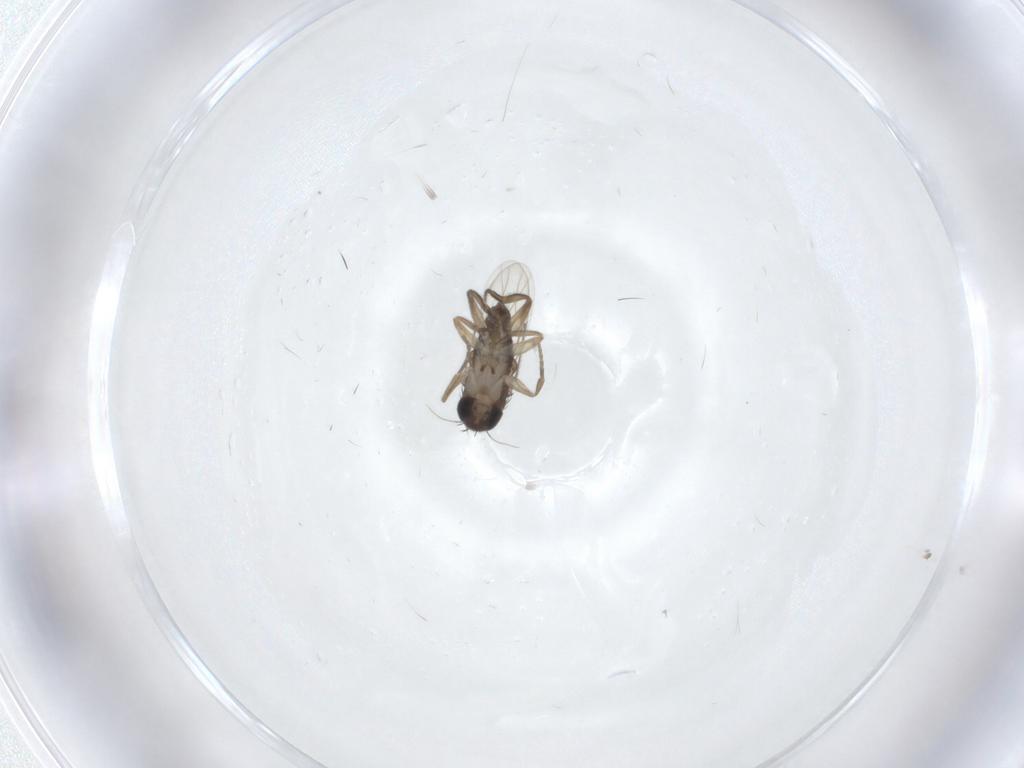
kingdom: Animalia
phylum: Arthropoda
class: Insecta
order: Diptera
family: Phoridae
